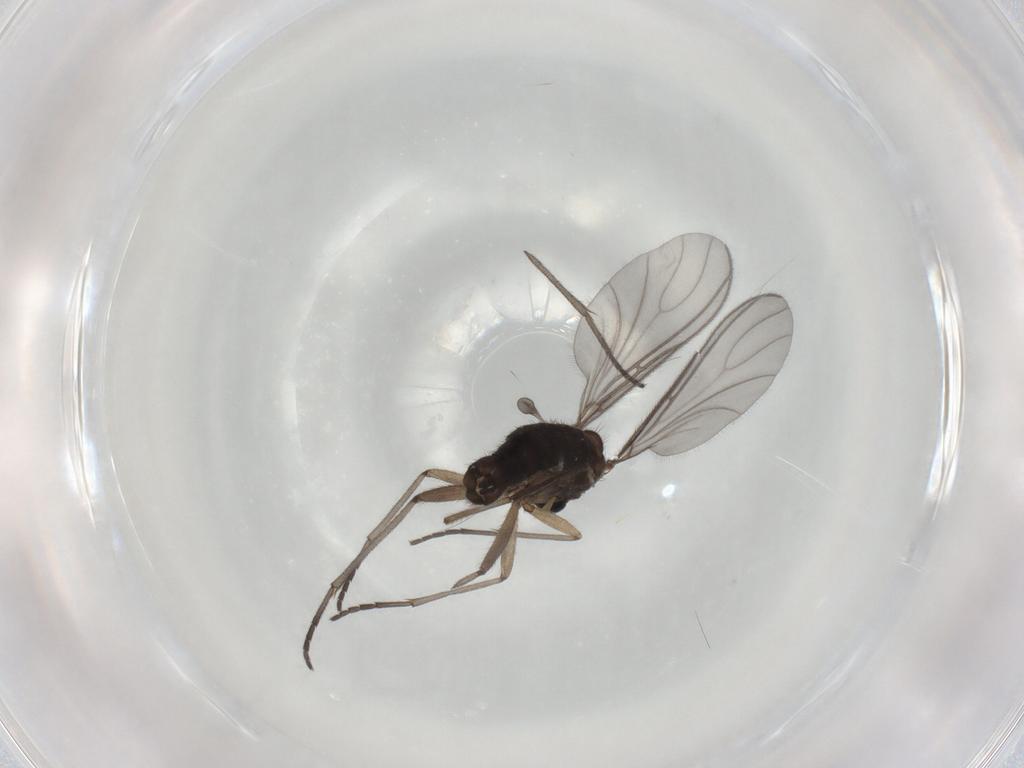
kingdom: Animalia
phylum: Arthropoda
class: Insecta
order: Diptera
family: Sciaridae
